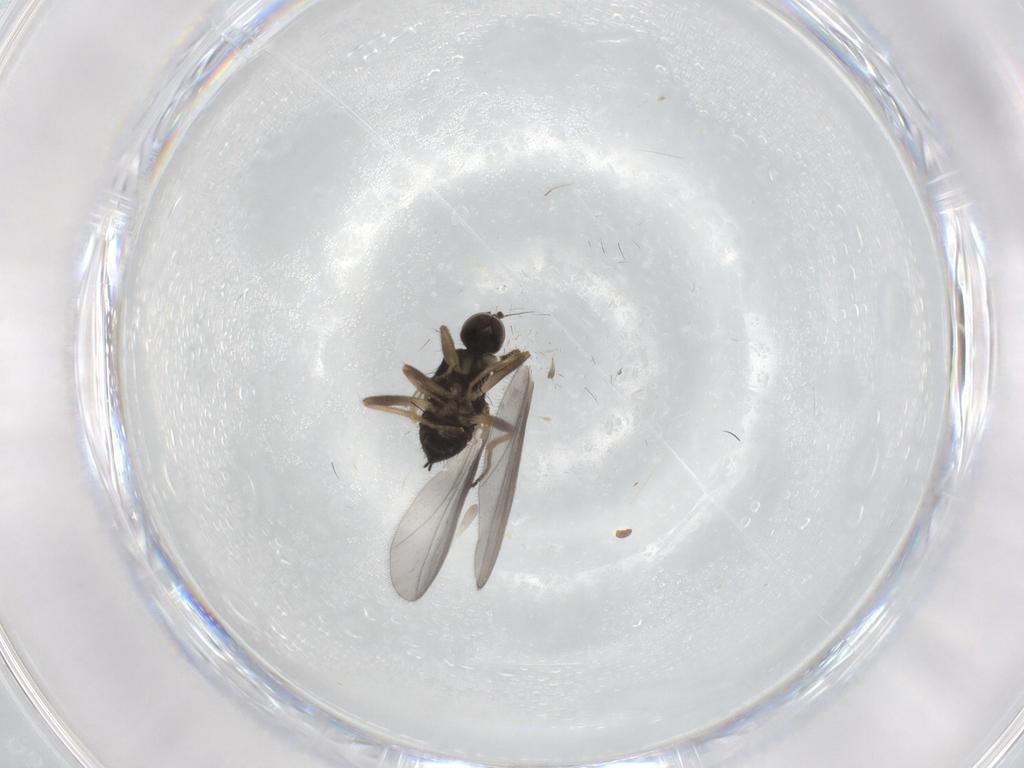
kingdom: Animalia
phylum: Arthropoda
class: Insecta
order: Diptera
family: Hybotidae
